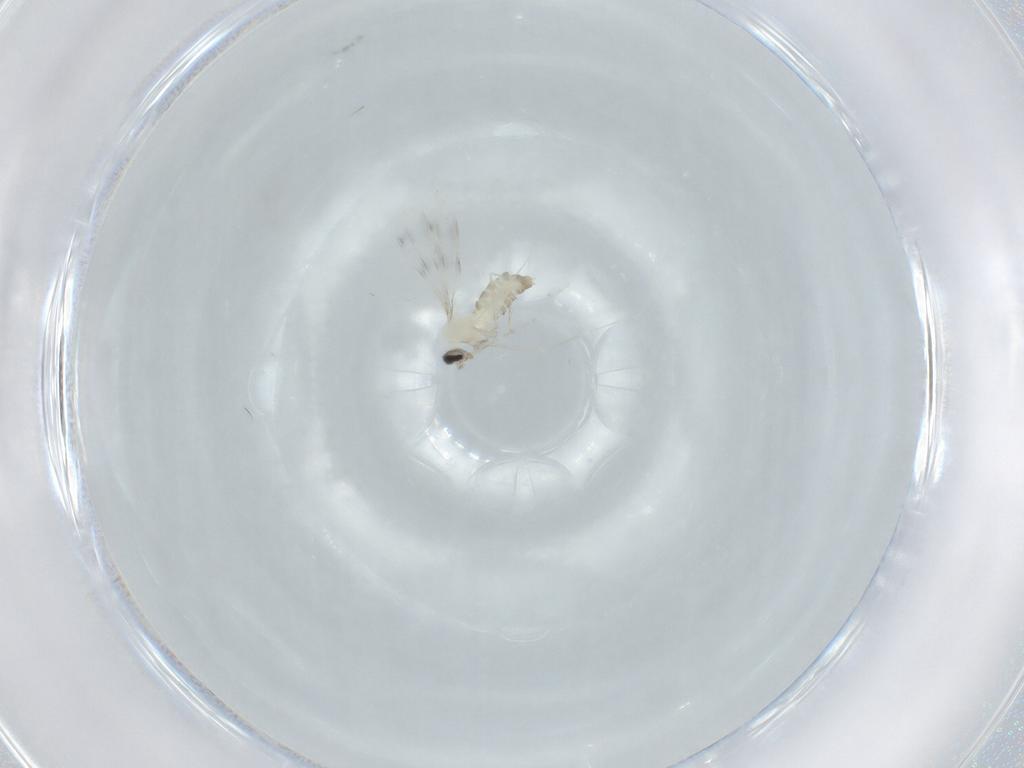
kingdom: Animalia
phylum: Arthropoda
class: Insecta
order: Diptera
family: Cecidomyiidae
